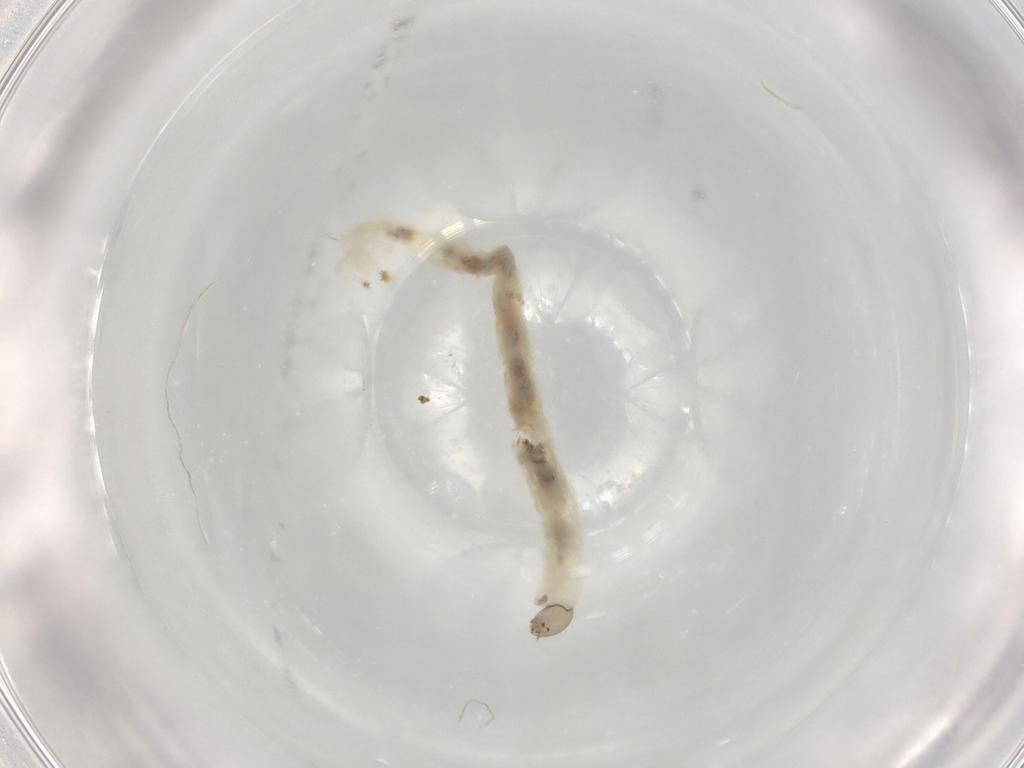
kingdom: Animalia
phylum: Arthropoda
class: Insecta
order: Diptera
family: Chironomidae
